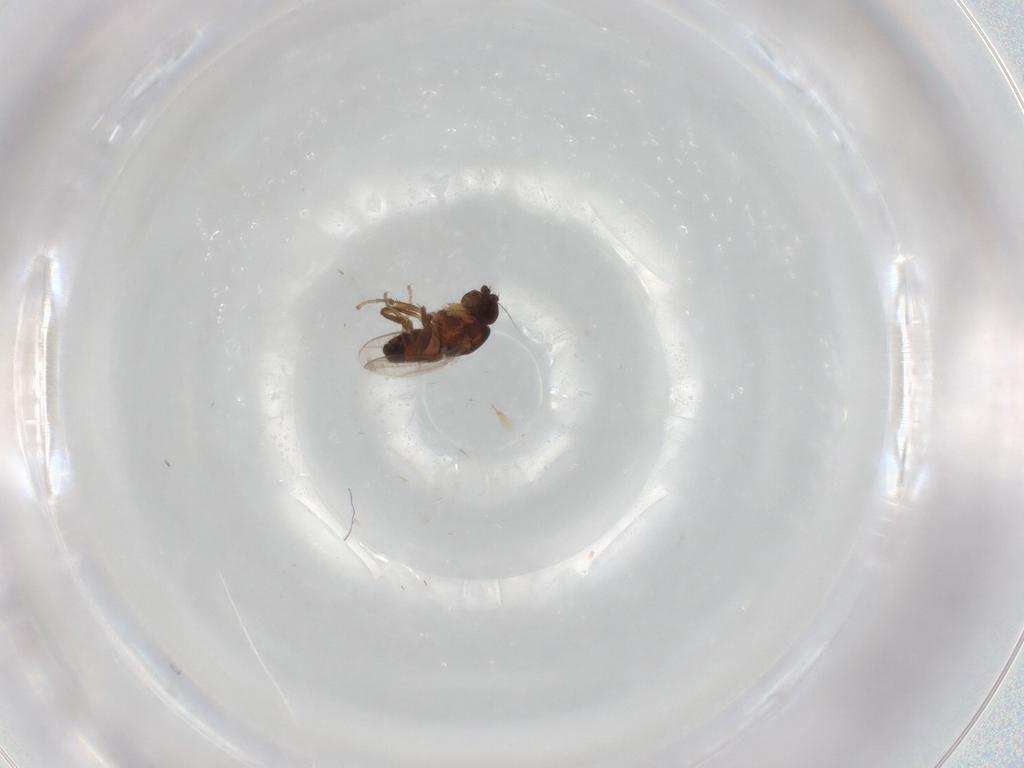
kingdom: Animalia
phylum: Arthropoda
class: Insecta
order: Diptera
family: Sphaeroceridae
